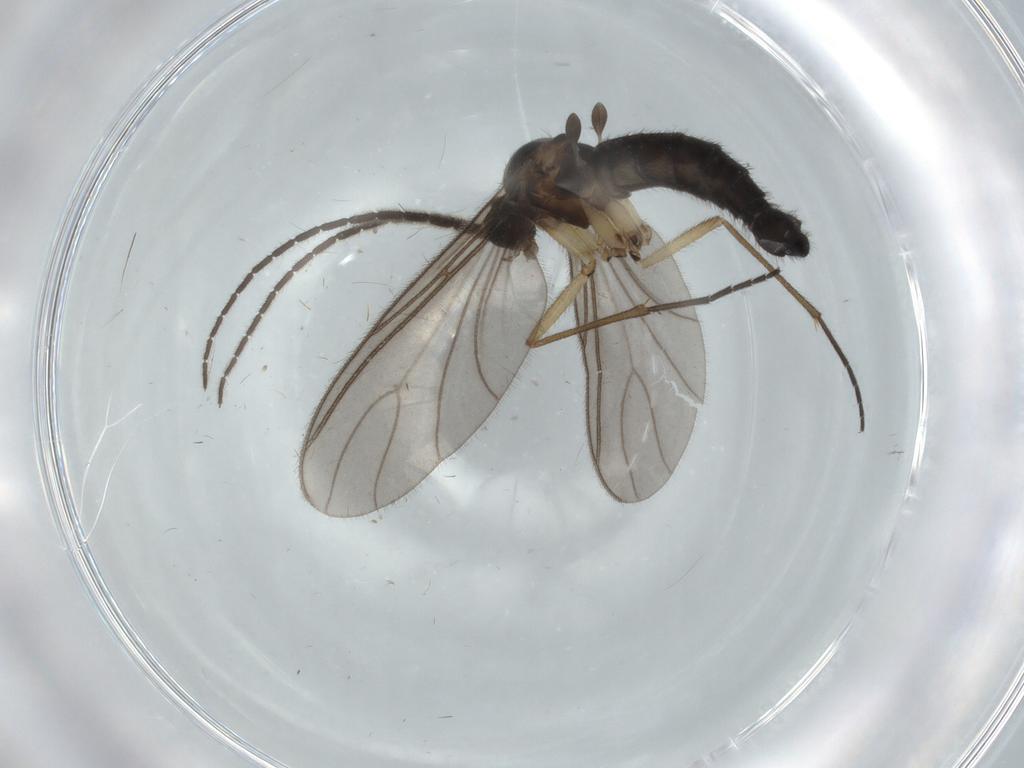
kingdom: Animalia
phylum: Arthropoda
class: Insecta
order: Diptera
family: Sciaridae
